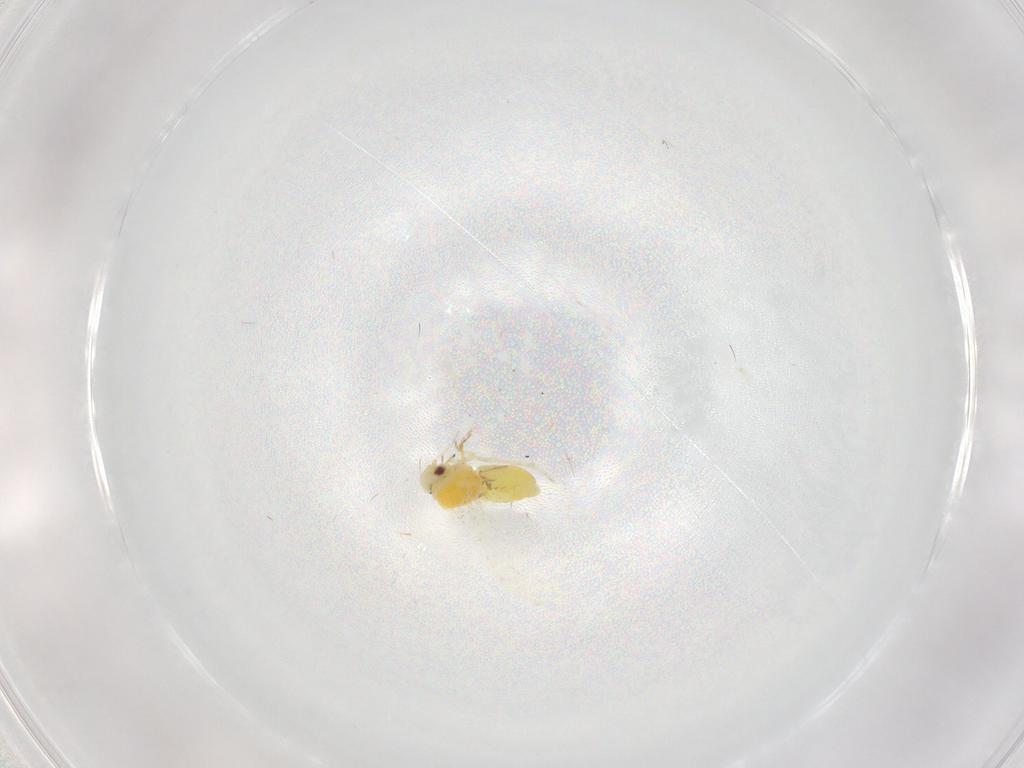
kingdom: Animalia
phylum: Arthropoda
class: Insecta
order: Hemiptera
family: Aleyrodidae
